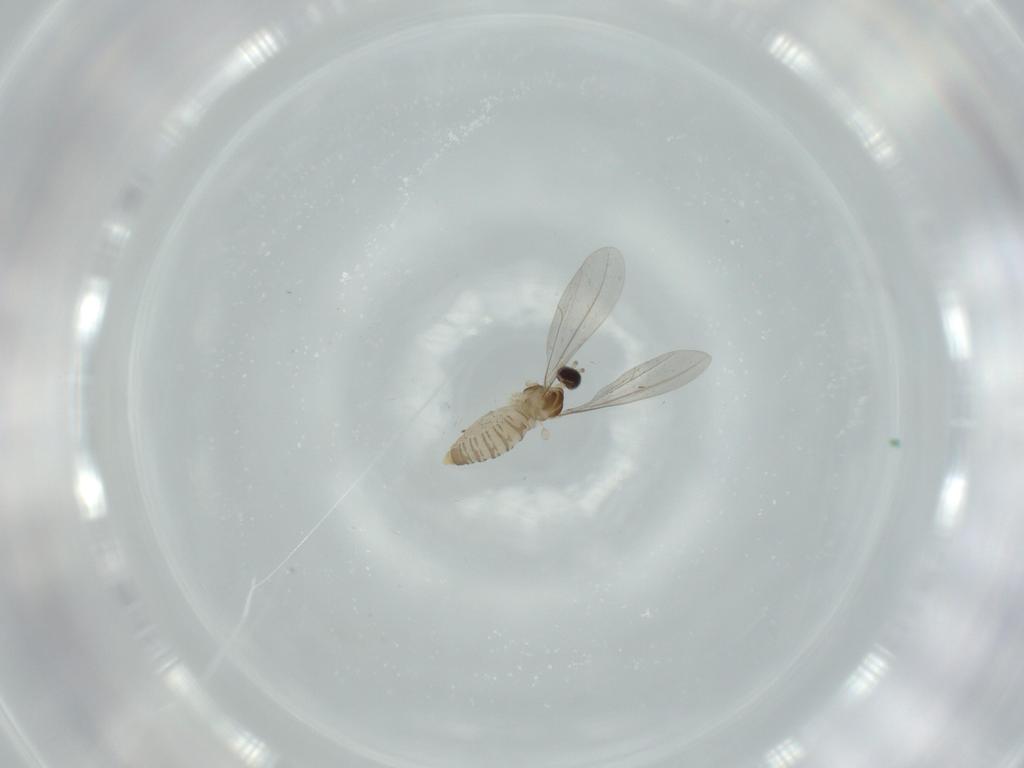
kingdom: Animalia
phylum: Arthropoda
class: Insecta
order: Diptera
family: Cecidomyiidae
